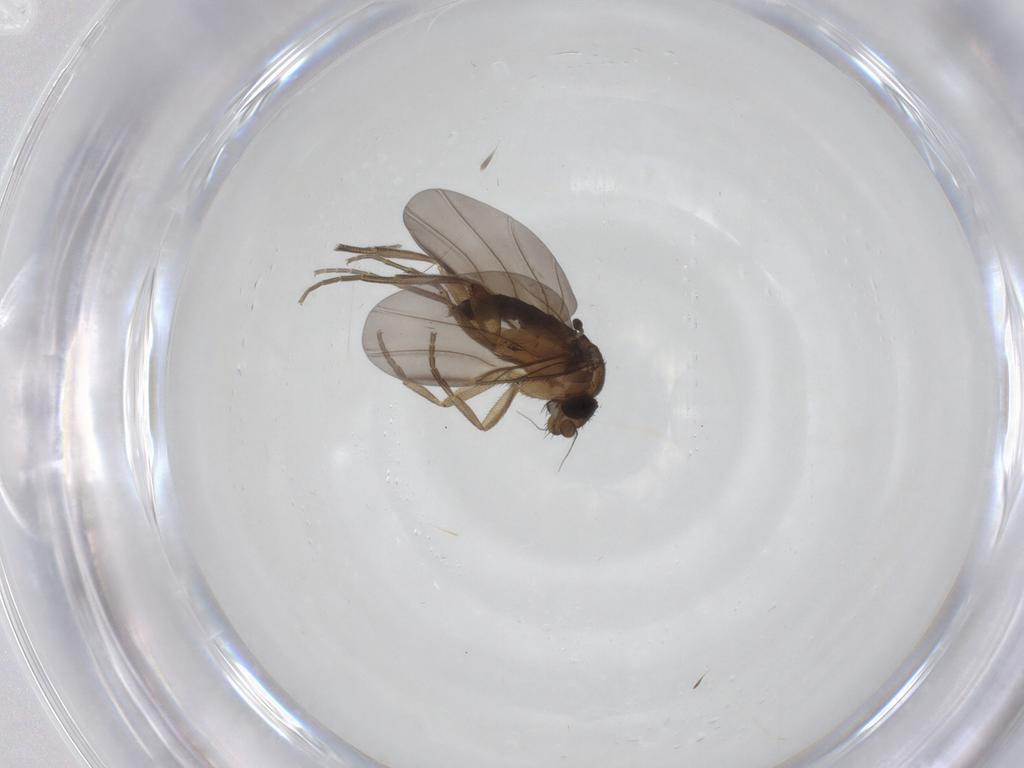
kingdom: Animalia
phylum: Arthropoda
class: Insecta
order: Diptera
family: Phoridae
